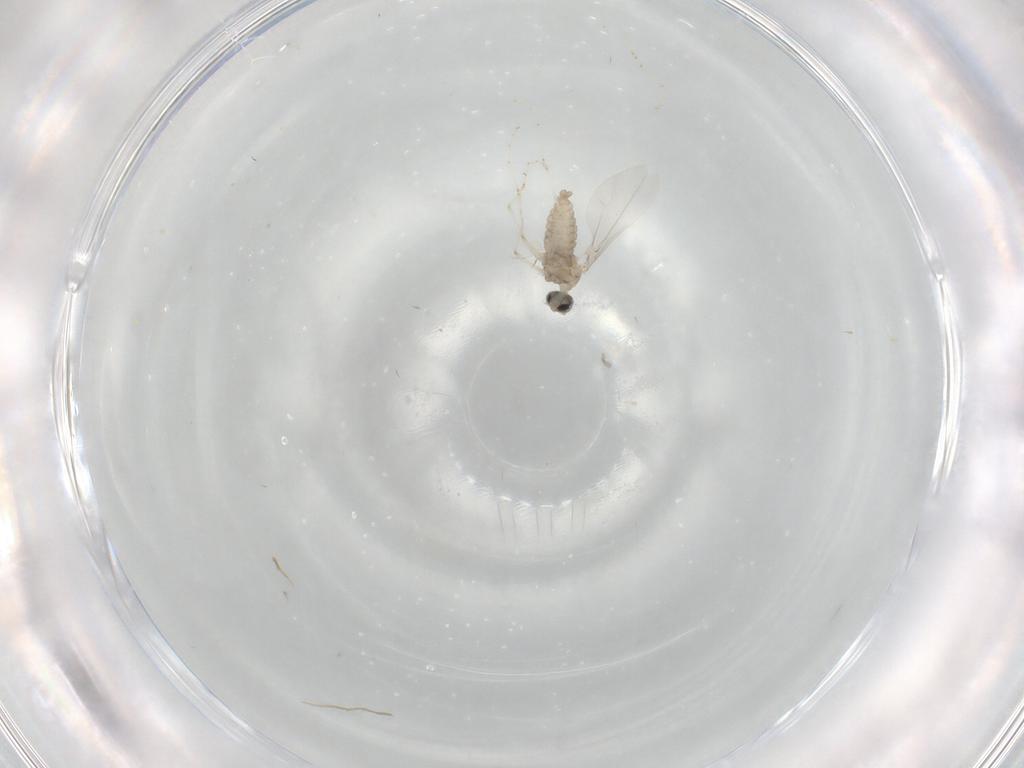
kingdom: Animalia
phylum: Arthropoda
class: Insecta
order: Diptera
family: Cecidomyiidae
